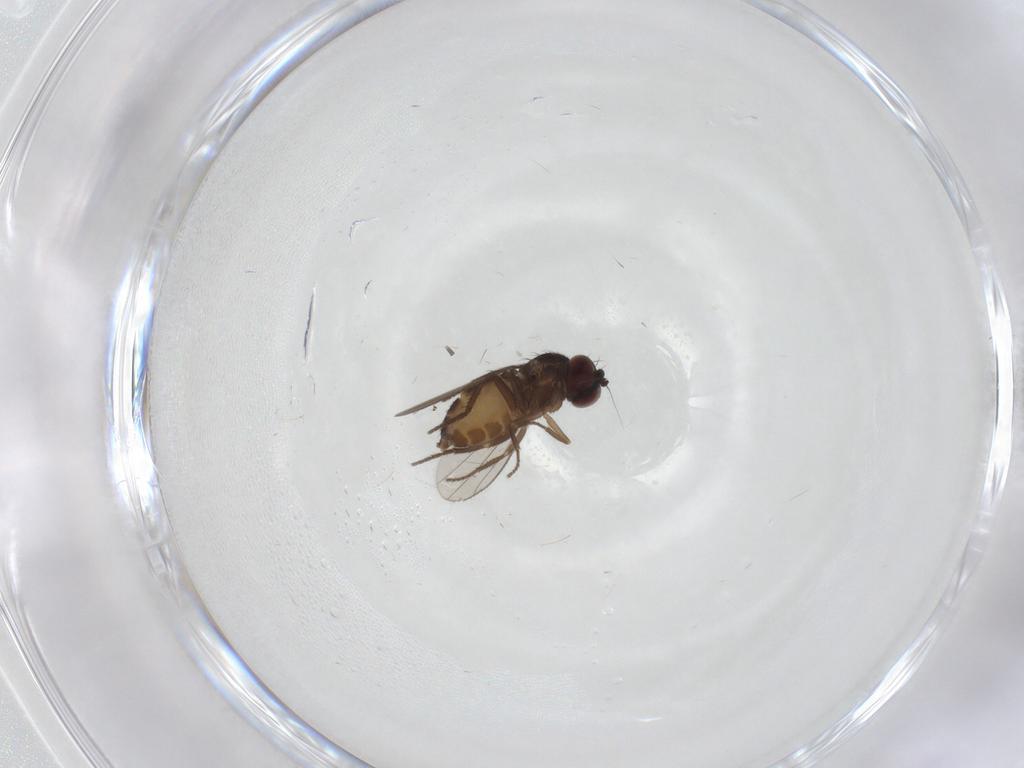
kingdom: Animalia
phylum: Arthropoda
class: Insecta
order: Diptera
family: Dolichopodidae
